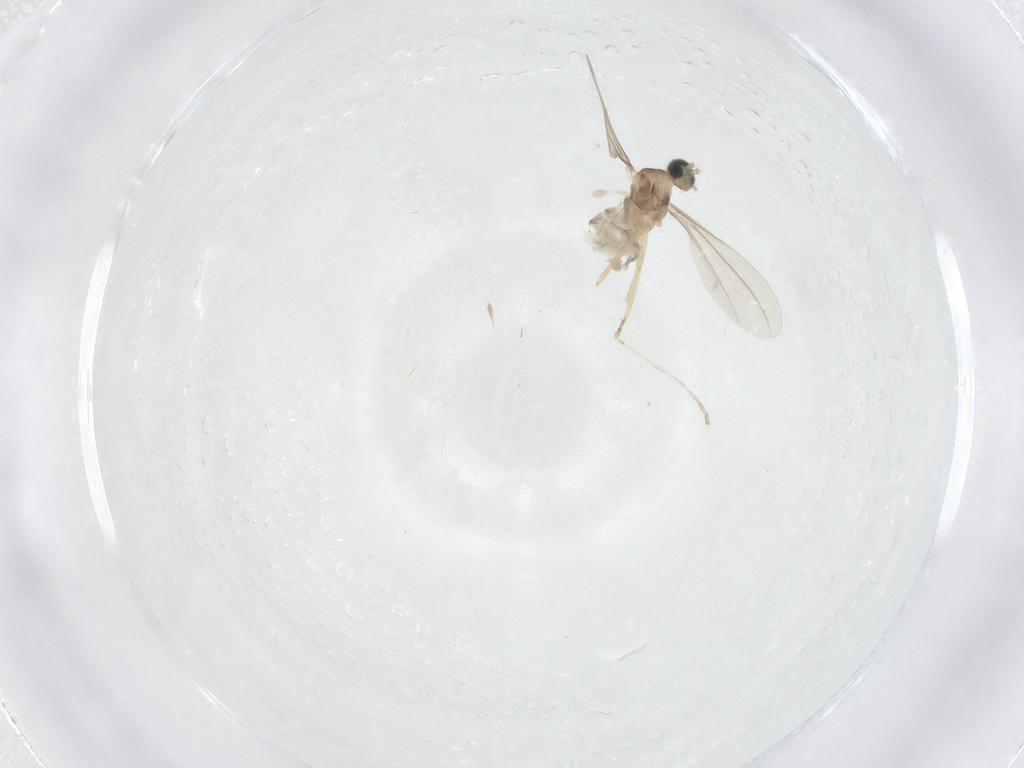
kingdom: Animalia
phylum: Arthropoda
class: Insecta
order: Diptera
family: Cecidomyiidae
